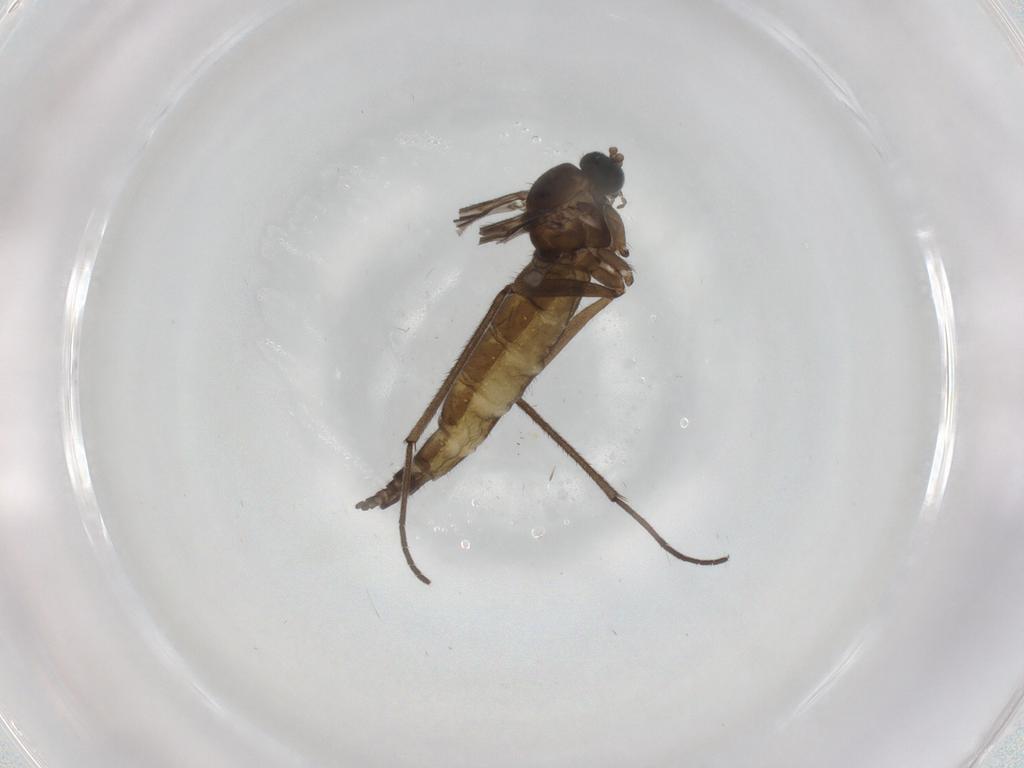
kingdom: Animalia
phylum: Arthropoda
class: Insecta
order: Diptera
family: Sciaridae
